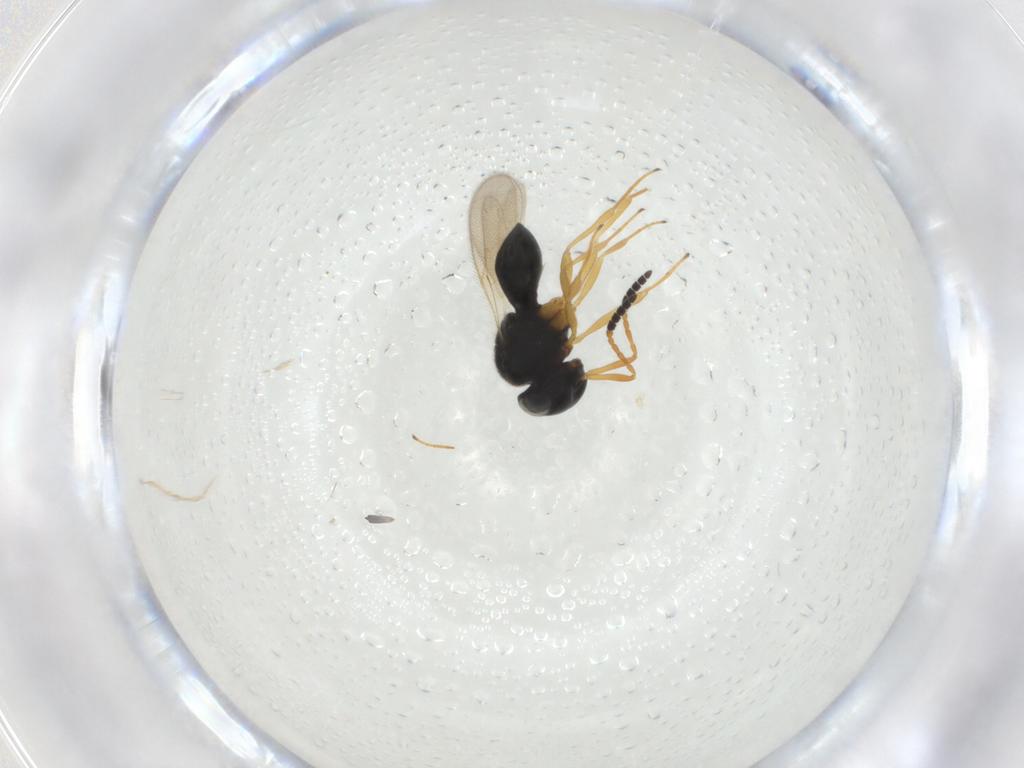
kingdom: Animalia
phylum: Arthropoda
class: Insecta
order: Hymenoptera
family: Scelionidae
